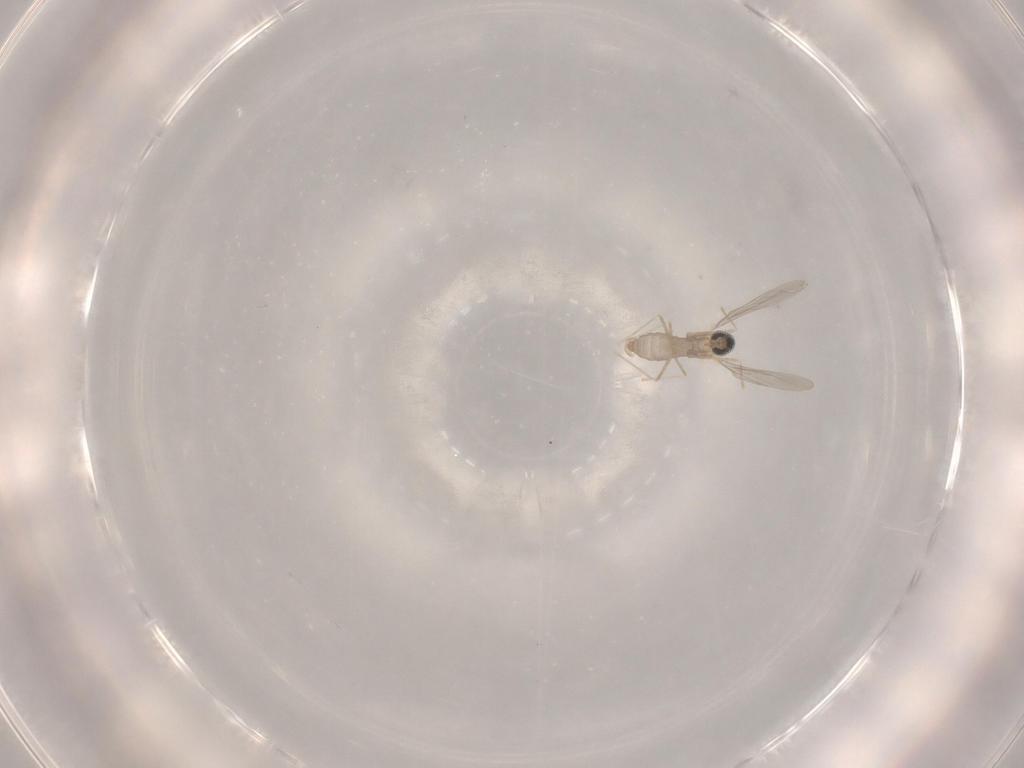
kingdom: Animalia
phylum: Arthropoda
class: Insecta
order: Diptera
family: Cecidomyiidae
